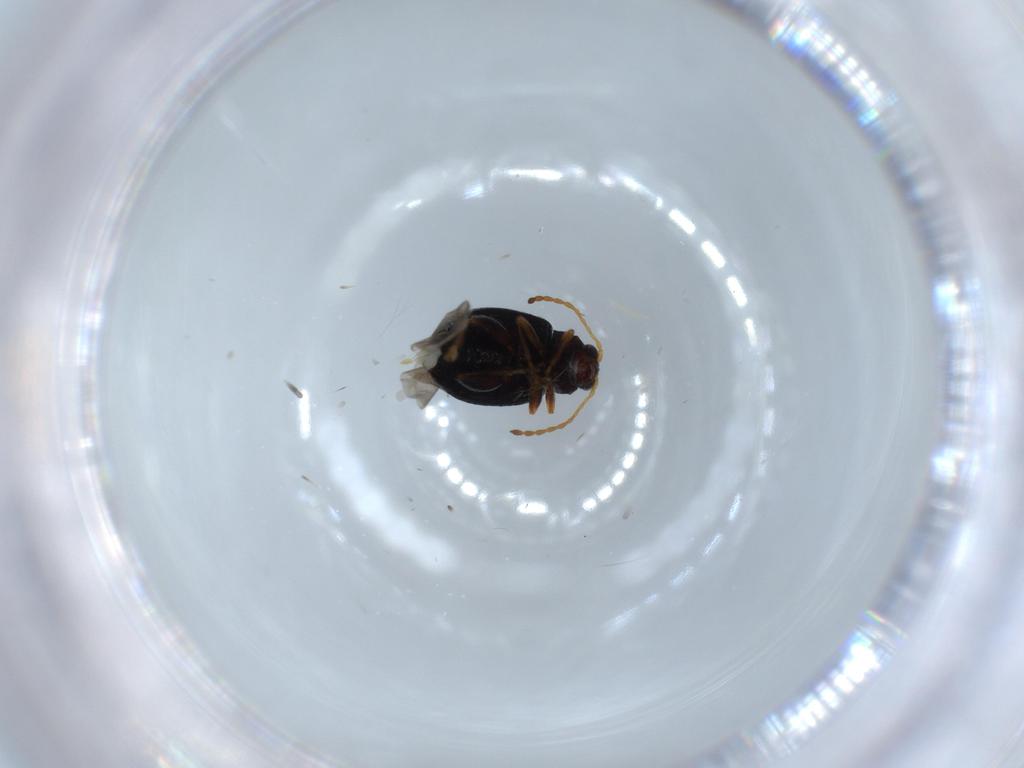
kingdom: Animalia
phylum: Arthropoda
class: Insecta
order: Coleoptera
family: Chrysomelidae
